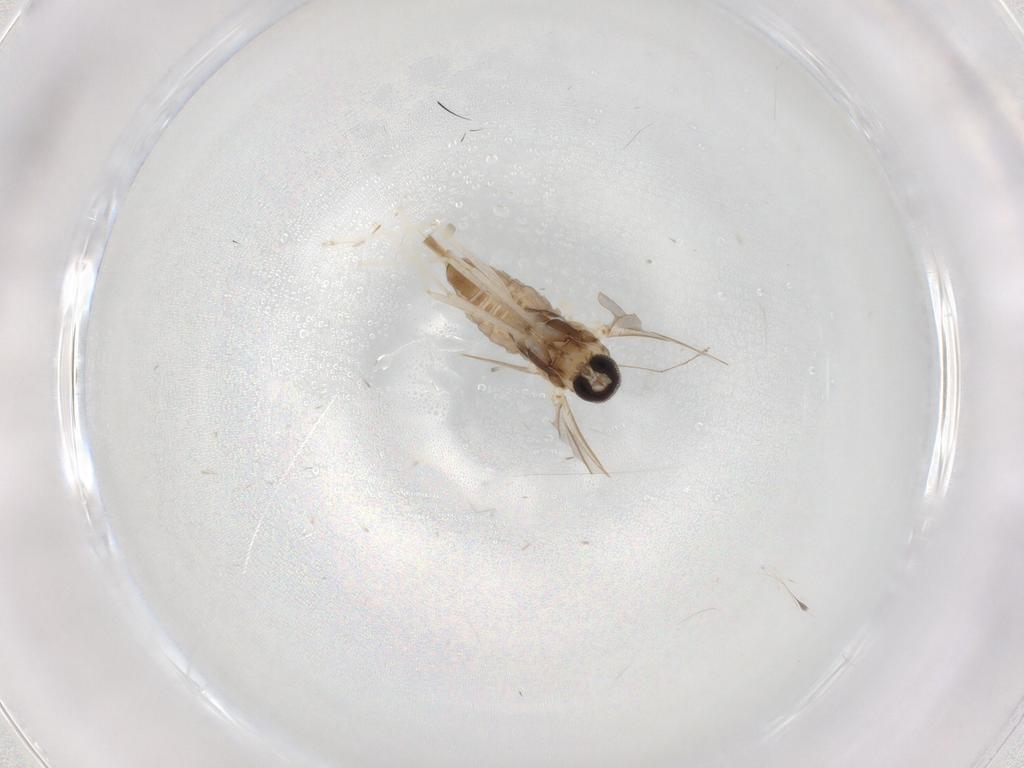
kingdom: Animalia
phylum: Arthropoda
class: Insecta
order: Diptera
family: Cecidomyiidae
